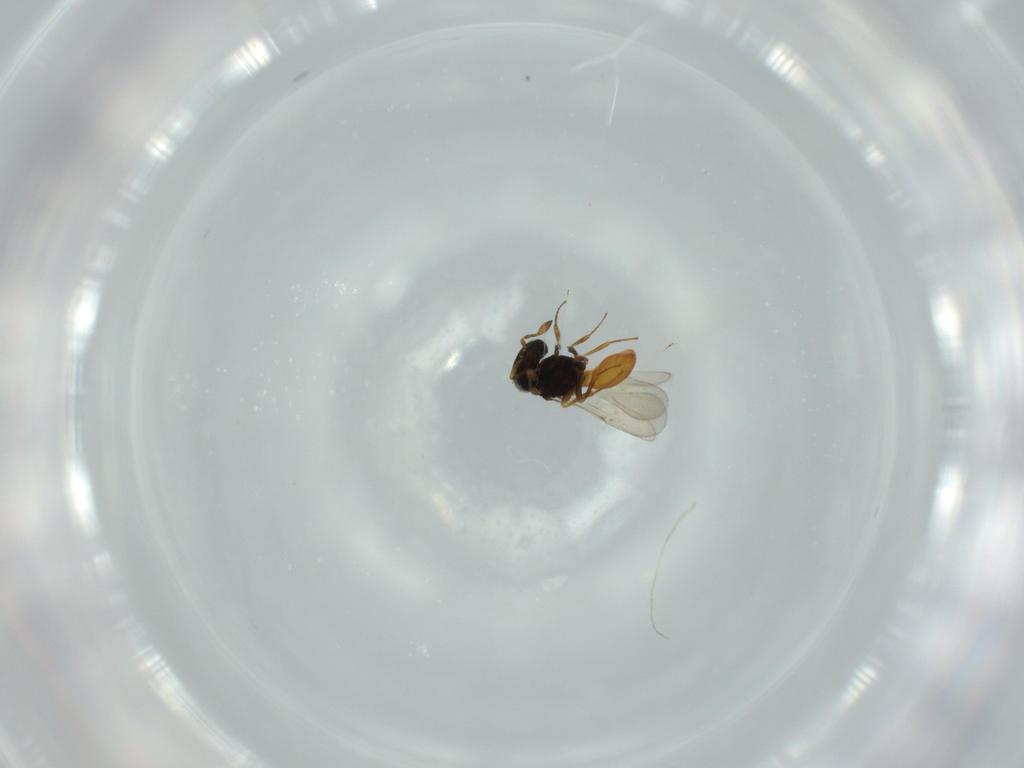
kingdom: Animalia
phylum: Arthropoda
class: Insecta
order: Hymenoptera
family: Scelionidae
